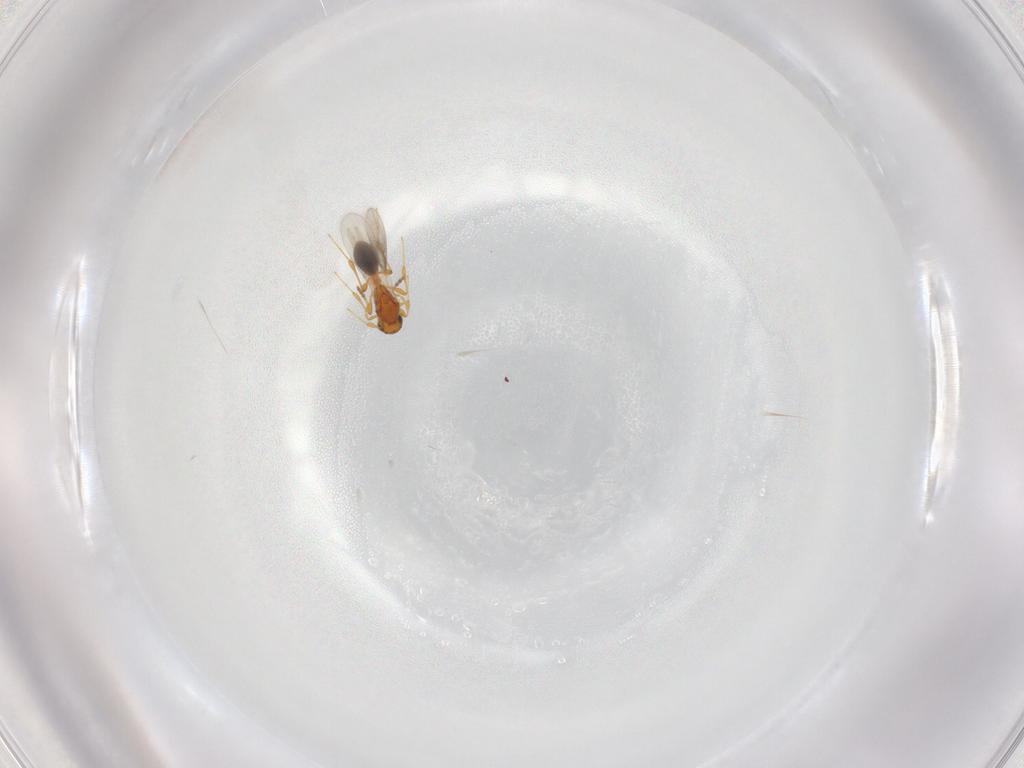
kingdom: Animalia
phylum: Arthropoda
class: Insecta
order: Hymenoptera
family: Platygastridae
